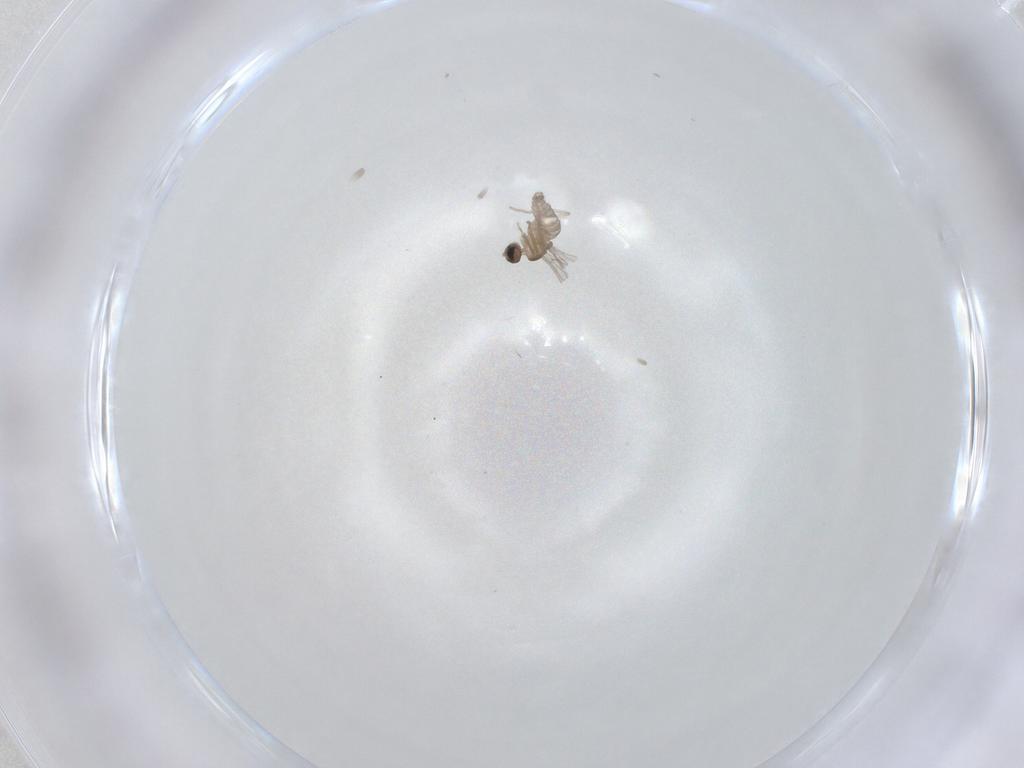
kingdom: Animalia
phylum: Arthropoda
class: Insecta
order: Diptera
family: Cecidomyiidae
